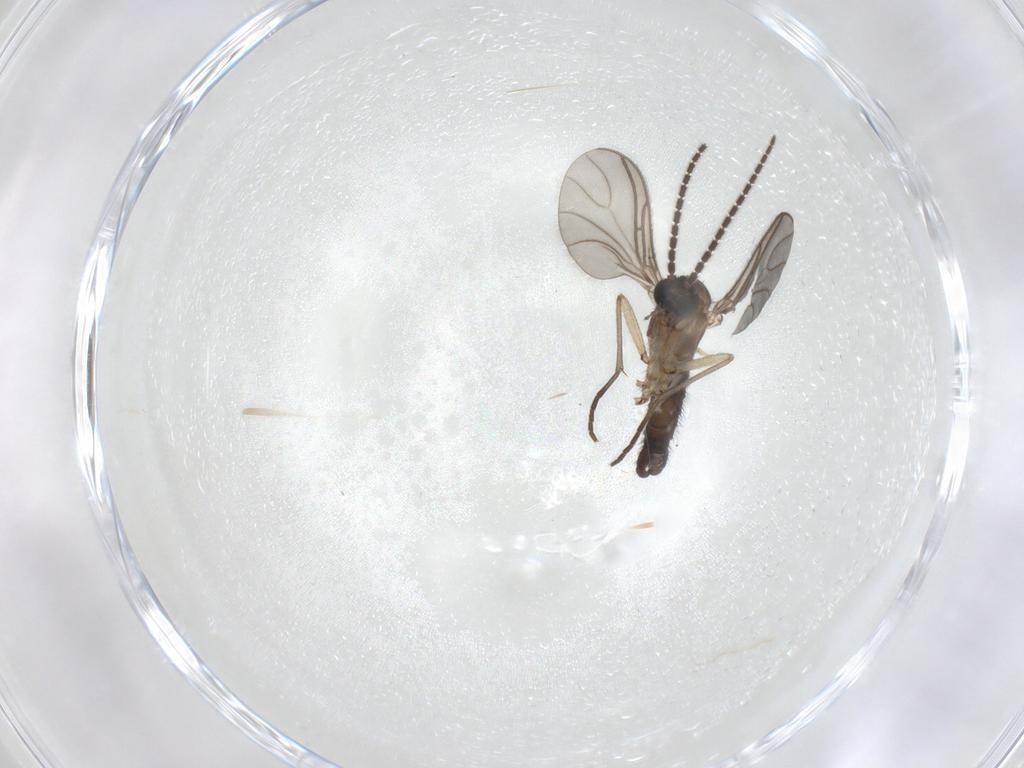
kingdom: Animalia
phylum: Arthropoda
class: Insecta
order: Diptera
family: Sciaridae
